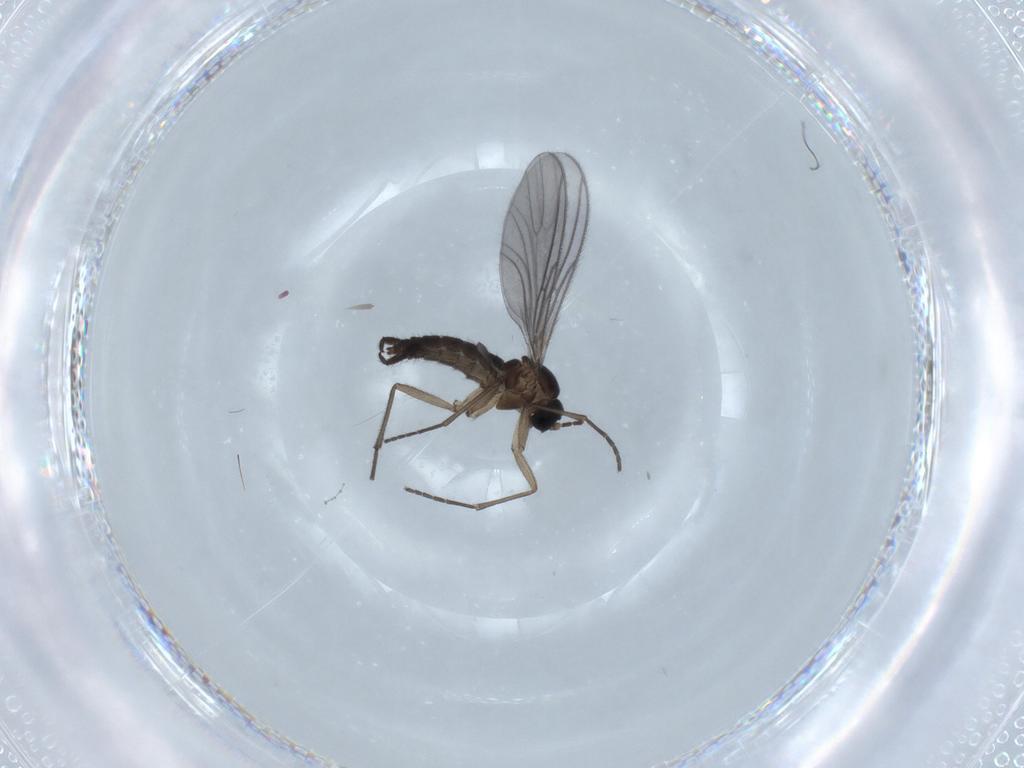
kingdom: Animalia
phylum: Arthropoda
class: Insecta
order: Diptera
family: Sciaridae
